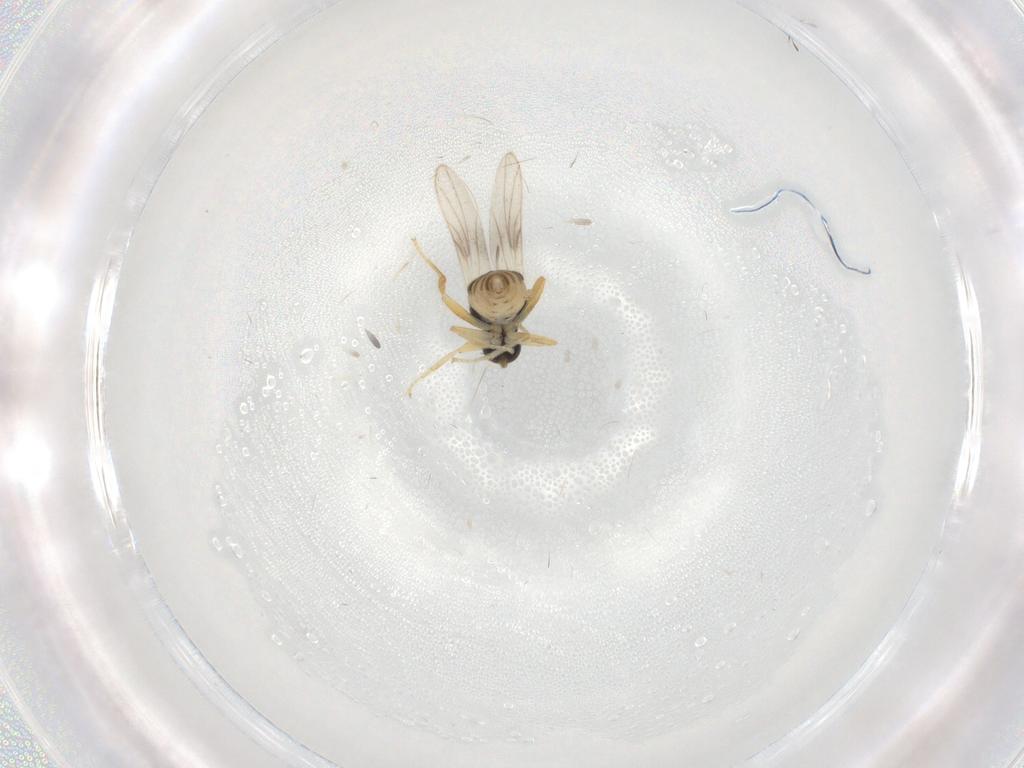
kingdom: Animalia
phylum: Arthropoda
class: Insecta
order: Diptera
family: Hybotidae
